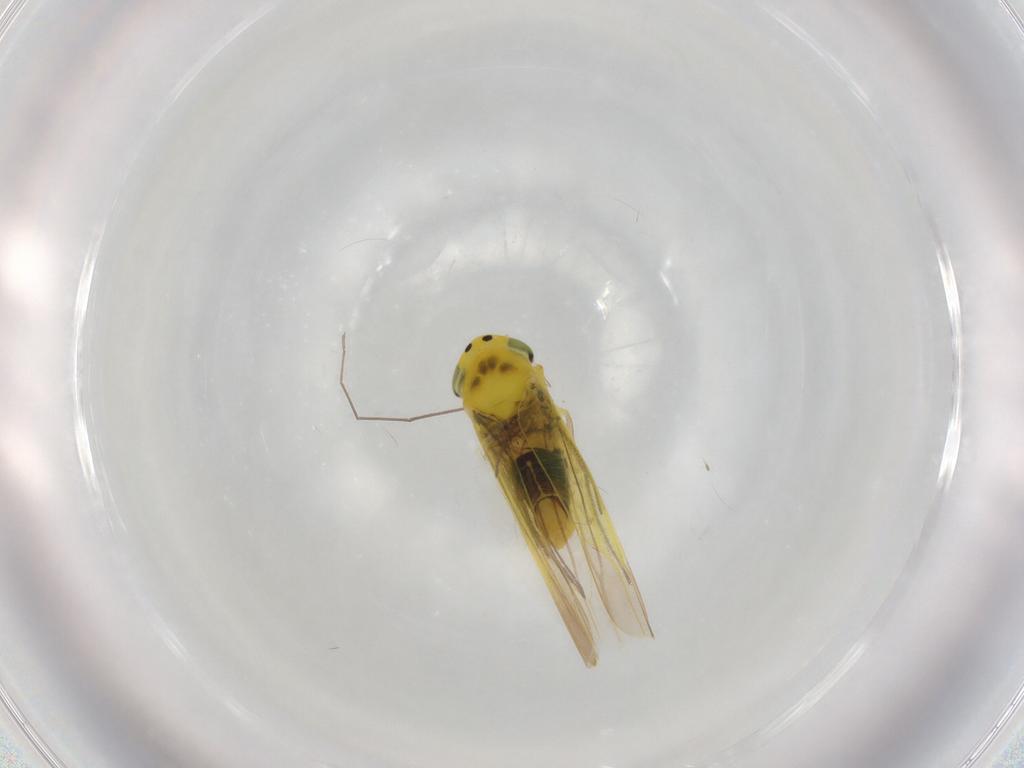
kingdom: Animalia
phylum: Arthropoda
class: Insecta
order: Hemiptera
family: Cicadellidae
